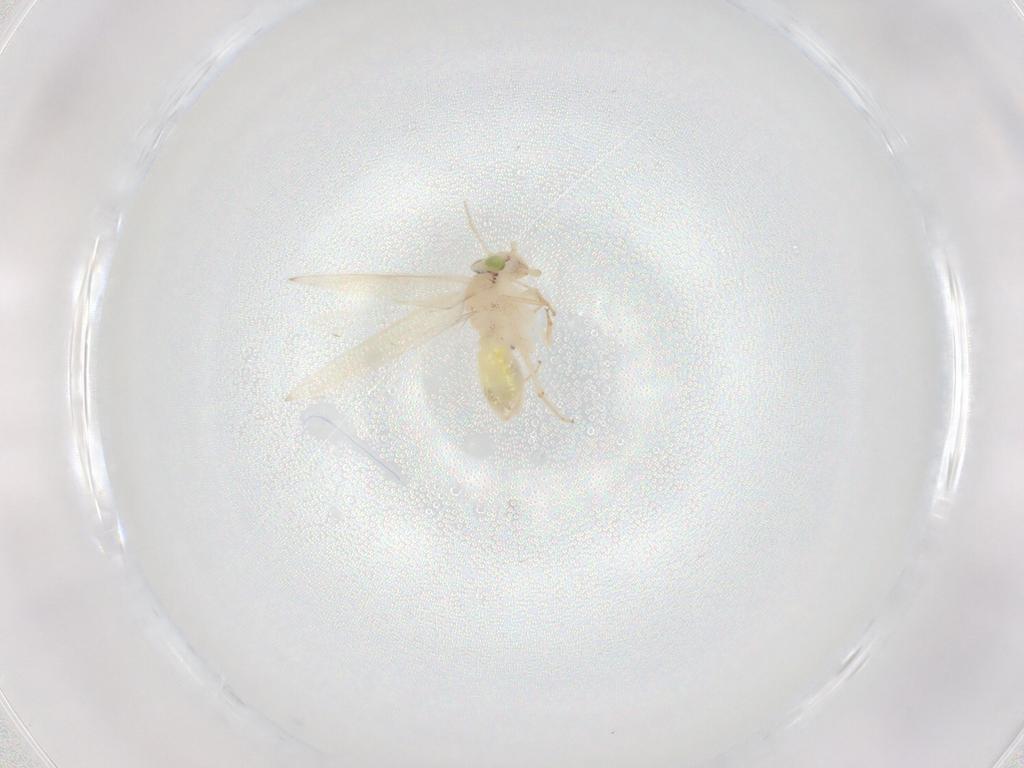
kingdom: Animalia
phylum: Arthropoda
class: Insecta
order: Psocodea
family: Lepidopsocidae
